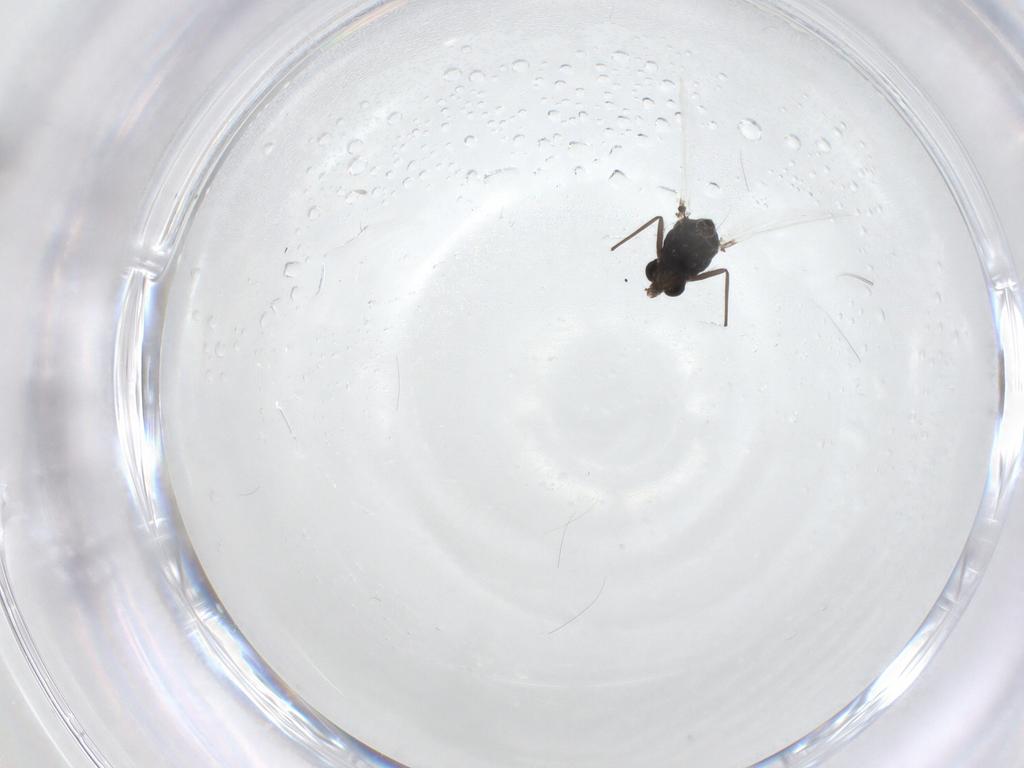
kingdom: Animalia
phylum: Arthropoda
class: Insecta
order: Diptera
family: Chironomidae
